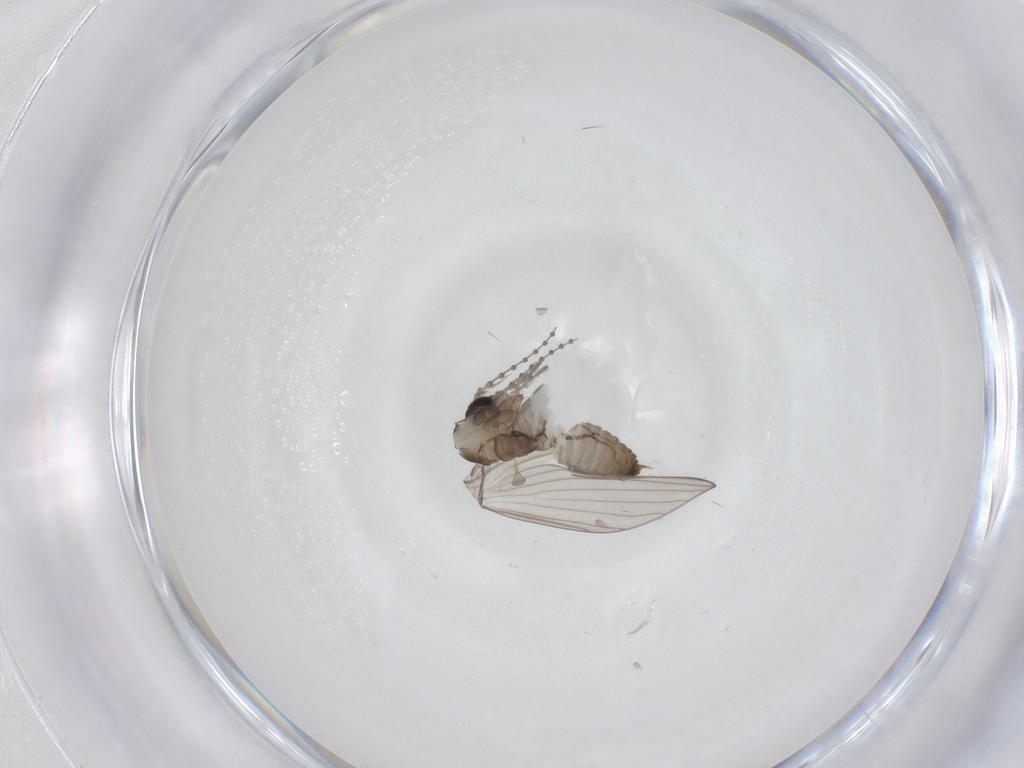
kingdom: Animalia
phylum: Arthropoda
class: Insecta
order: Diptera
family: Psychodidae
